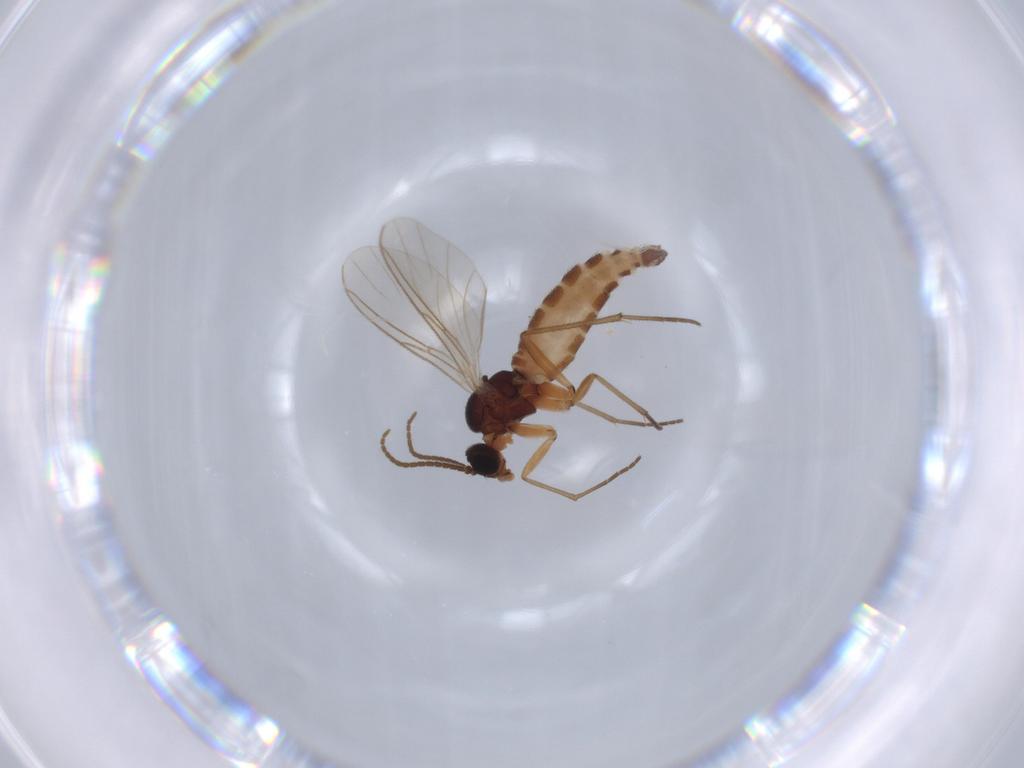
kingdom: Animalia
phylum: Arthropoda
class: Insecta
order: Diptera
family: Sciaridae
